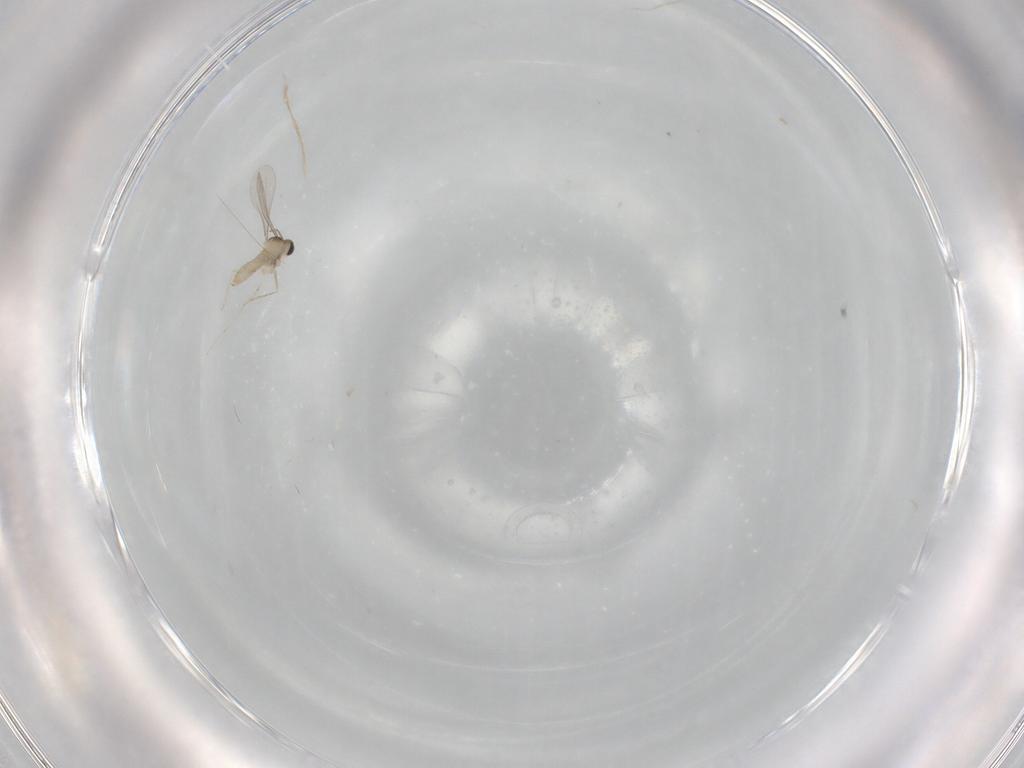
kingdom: Animalia
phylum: Arthropoda
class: Insecta
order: Diptera
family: Cecidomyiidae
